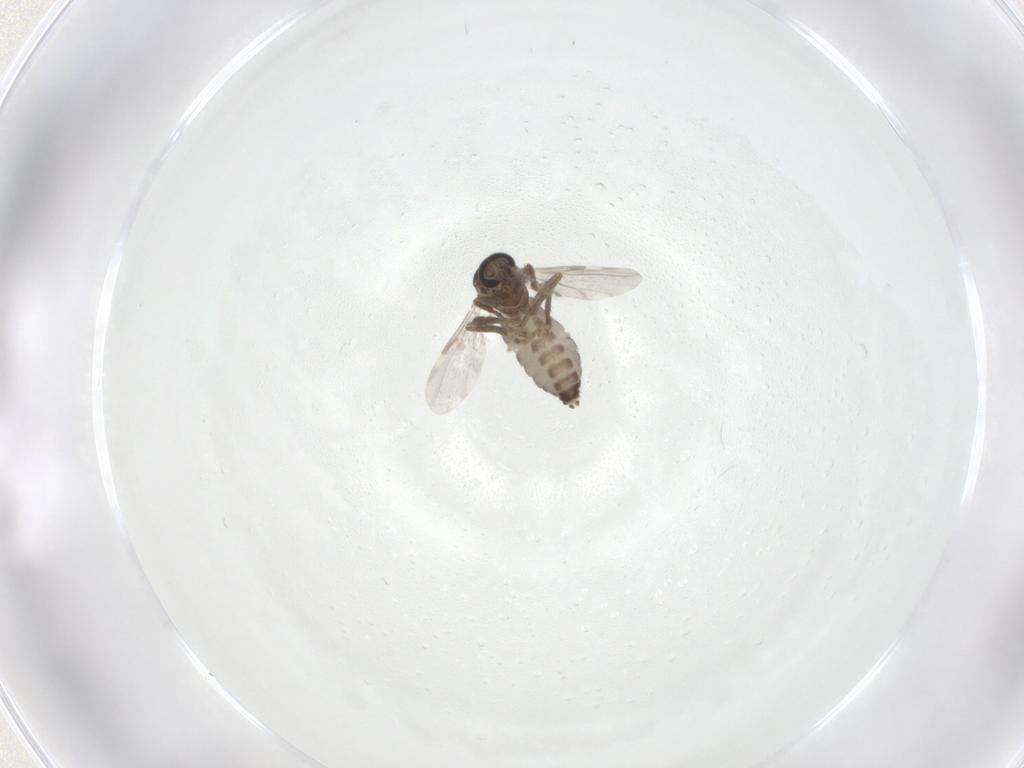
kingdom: Animalia
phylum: Arthropoda
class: Insecta
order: Diptera
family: Ceratopogonidae
